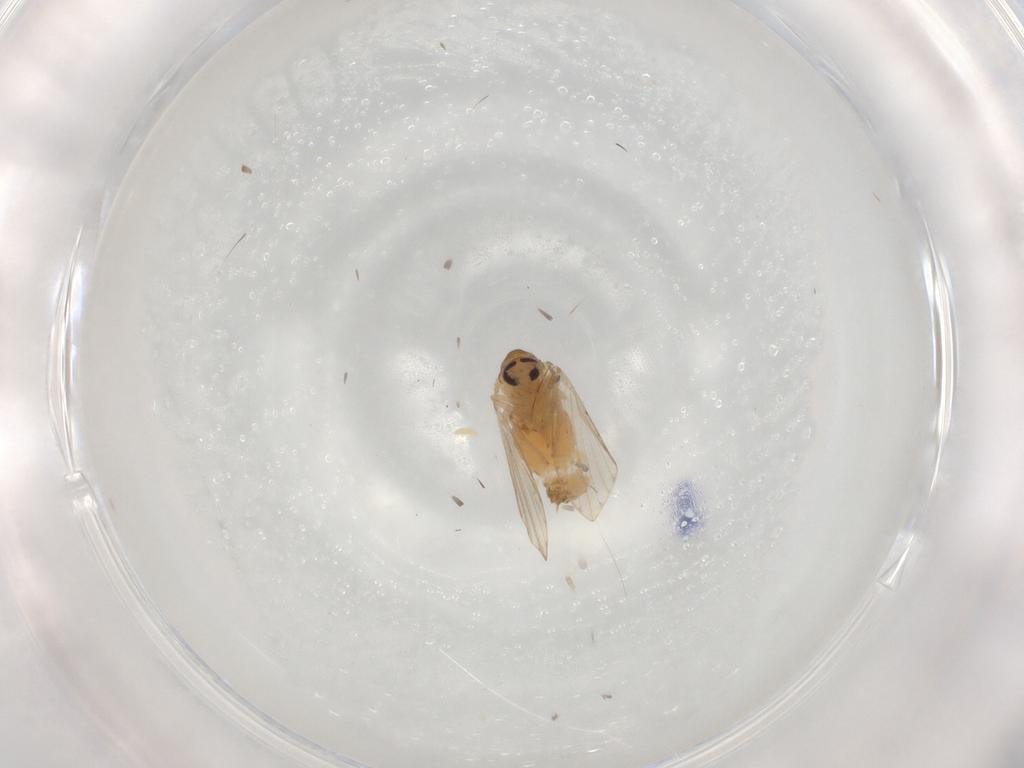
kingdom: Animalia
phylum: Arthropoda
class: Insecta
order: Diptera
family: Psychodidae
